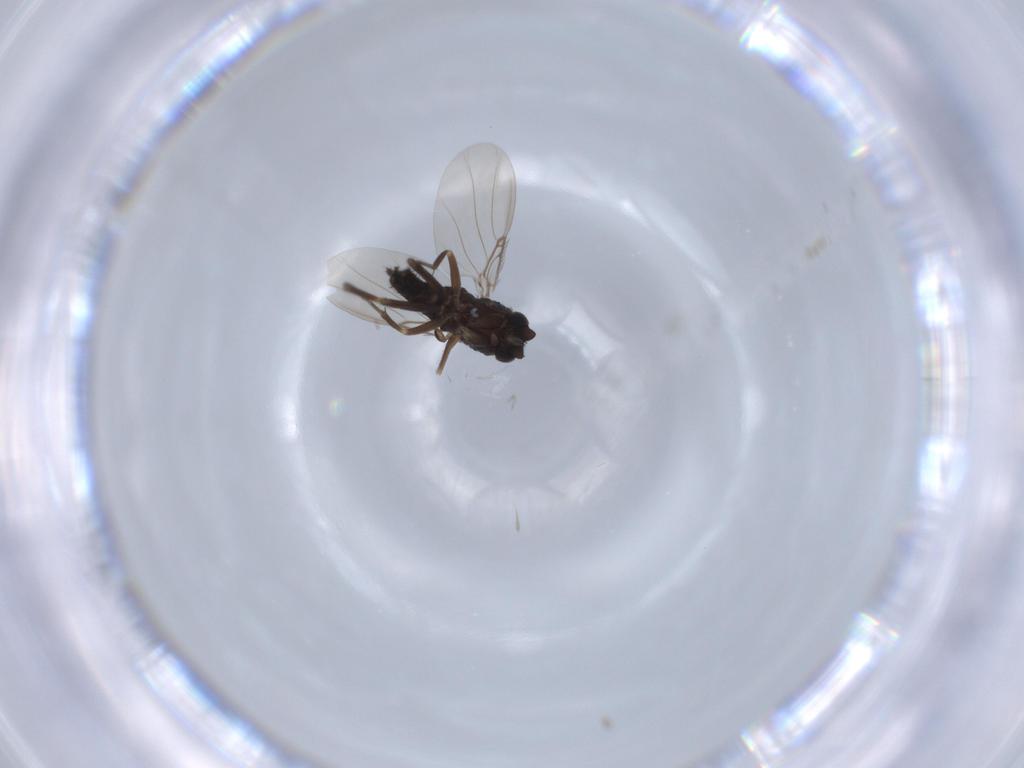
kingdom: Animalia
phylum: Arthropoda
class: Insecta
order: Diptera
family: Phoridae
